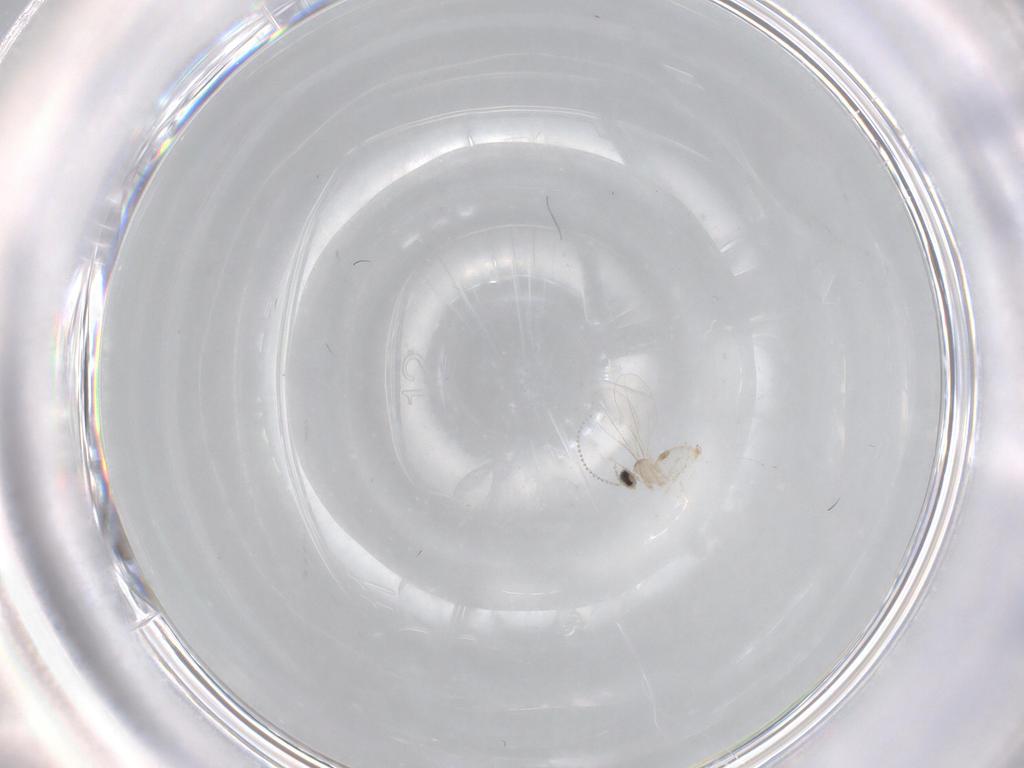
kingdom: Animalia
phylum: Arthropoda
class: Insecta
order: Diptera
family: Cecidomyiidae
